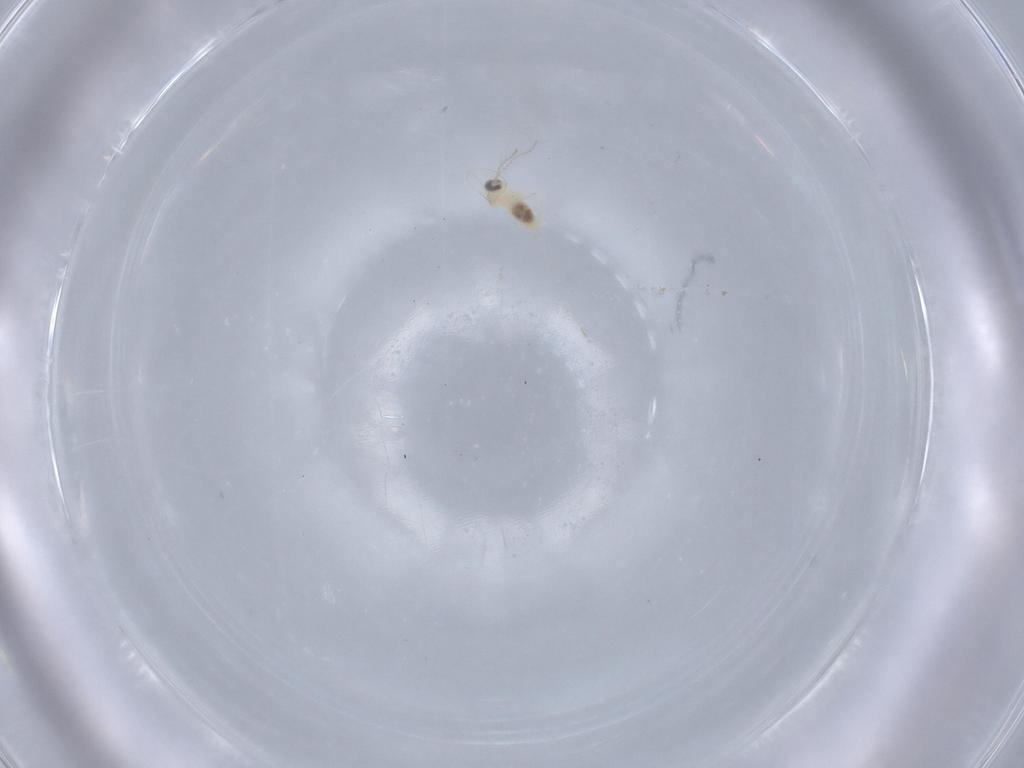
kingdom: Animalia
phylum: Arthropoda
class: Insecta
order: Diptera
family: Cecidomyiidae
